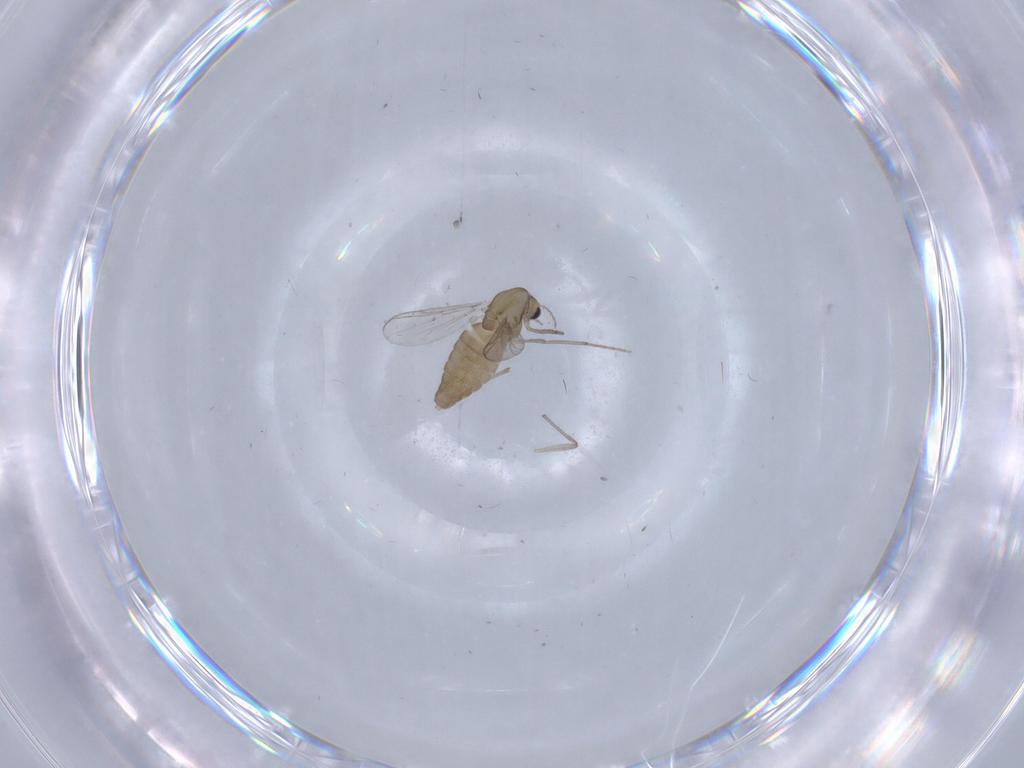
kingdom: Animalia
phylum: Arthropoda
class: Insecta
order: Diptera
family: Chironomidae
